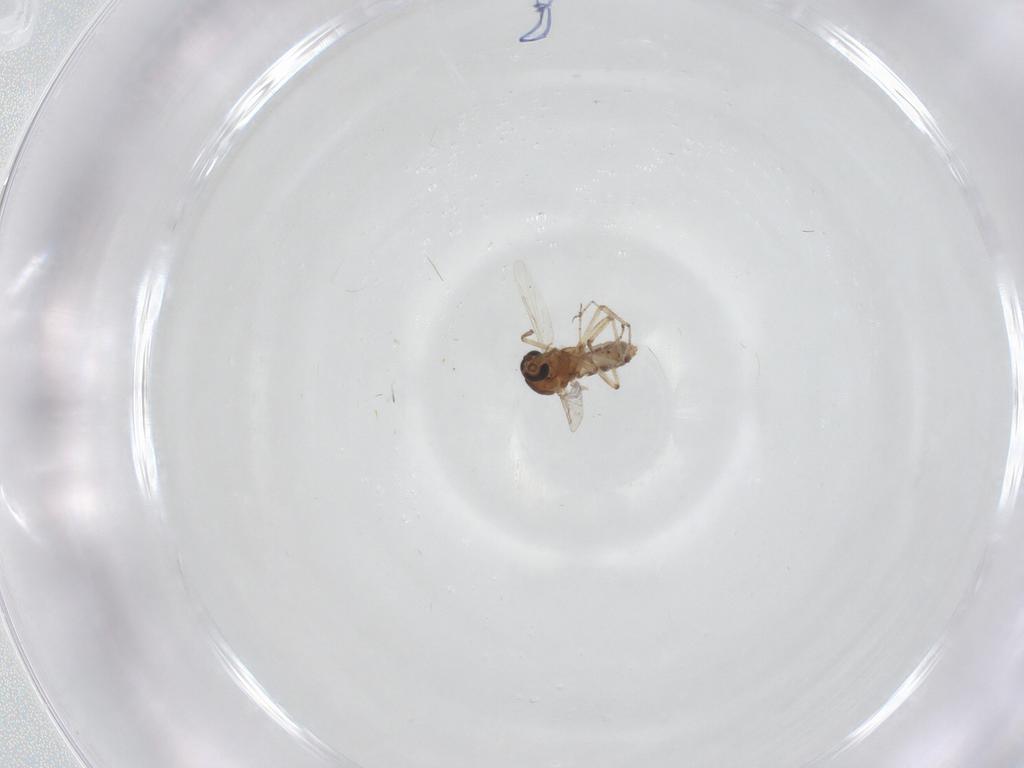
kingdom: Animalia
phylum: Arthropoda
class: Insecta
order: Diptera
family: Ceratopogonidae
